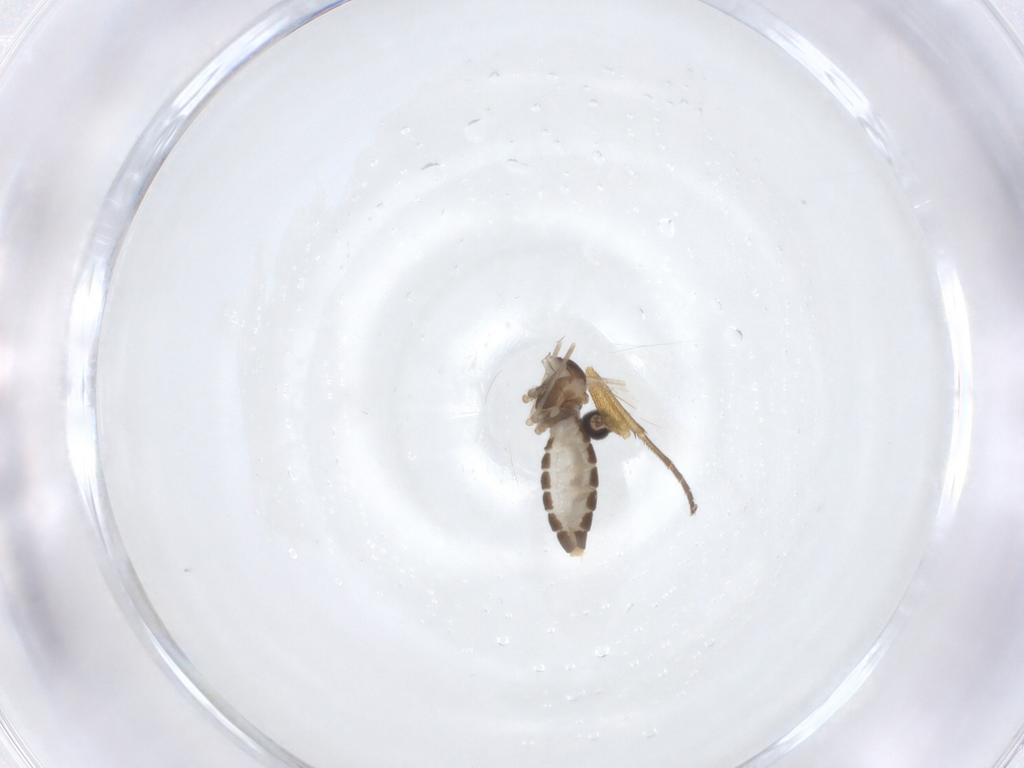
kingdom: Animalia
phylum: Arthropoda
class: Insecta
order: Diptera
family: Cecidomyiidae
